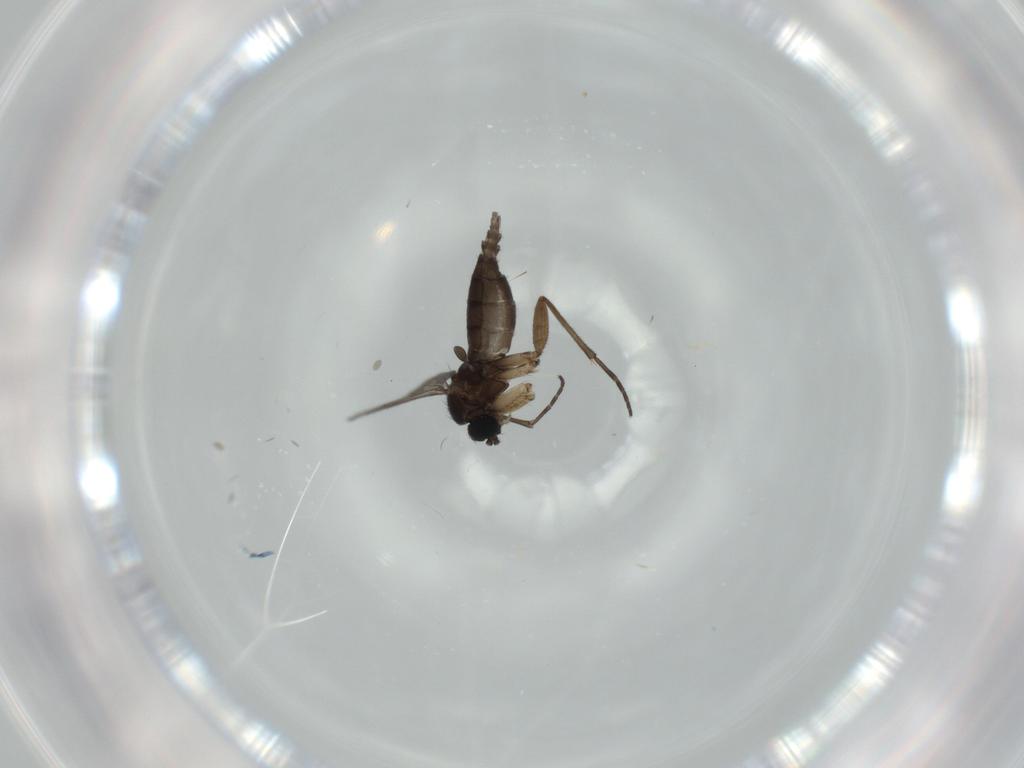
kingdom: Animalia
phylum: Arthropoda
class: Insecta
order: Diptera
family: Sciaridae
